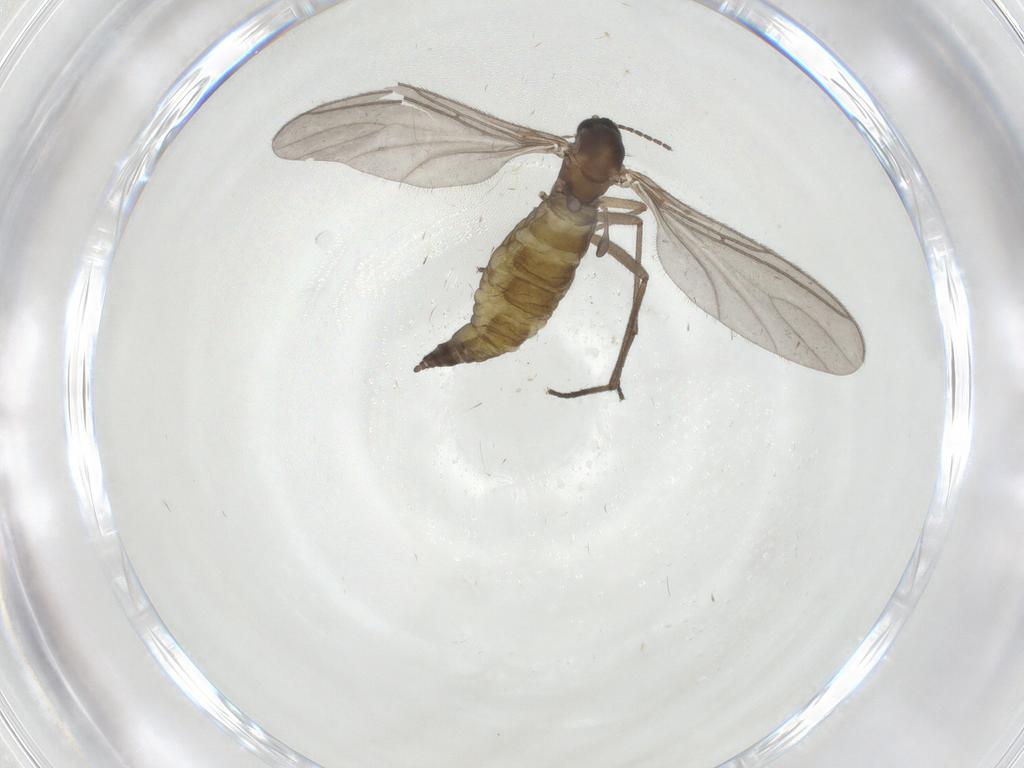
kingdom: Animalia
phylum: Arthropoda
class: Insecta
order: Diptera
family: Sciaridae
